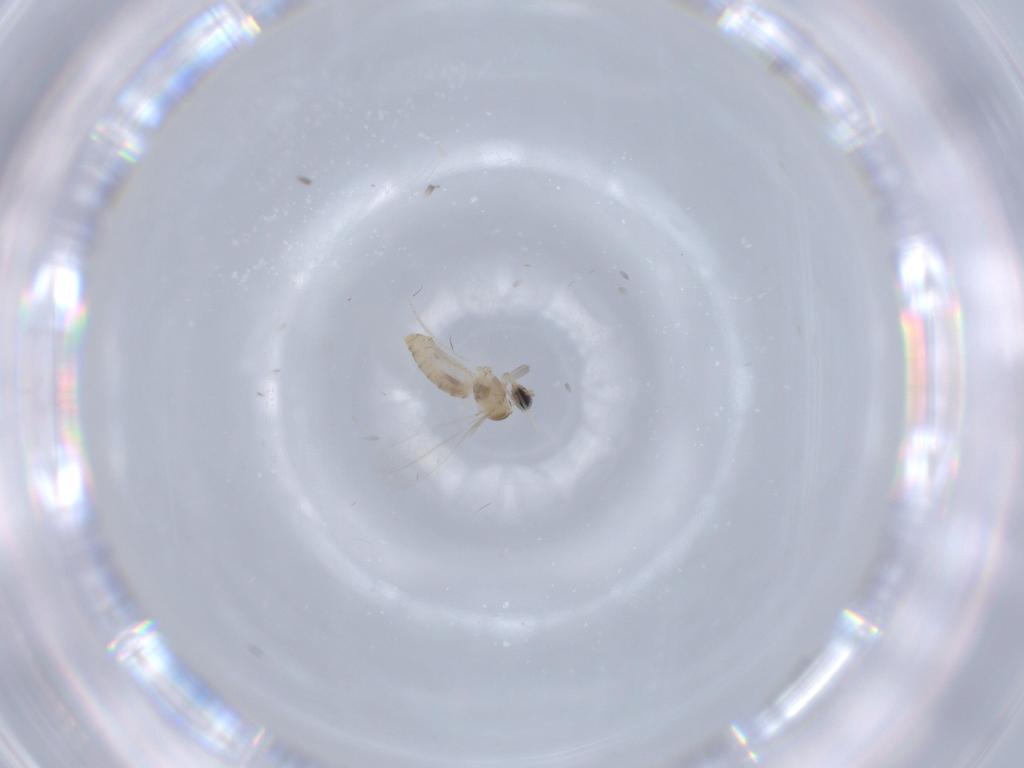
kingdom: Animalia
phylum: Arthropoda
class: Insecta
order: Diptera
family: Cecidomyiidae
